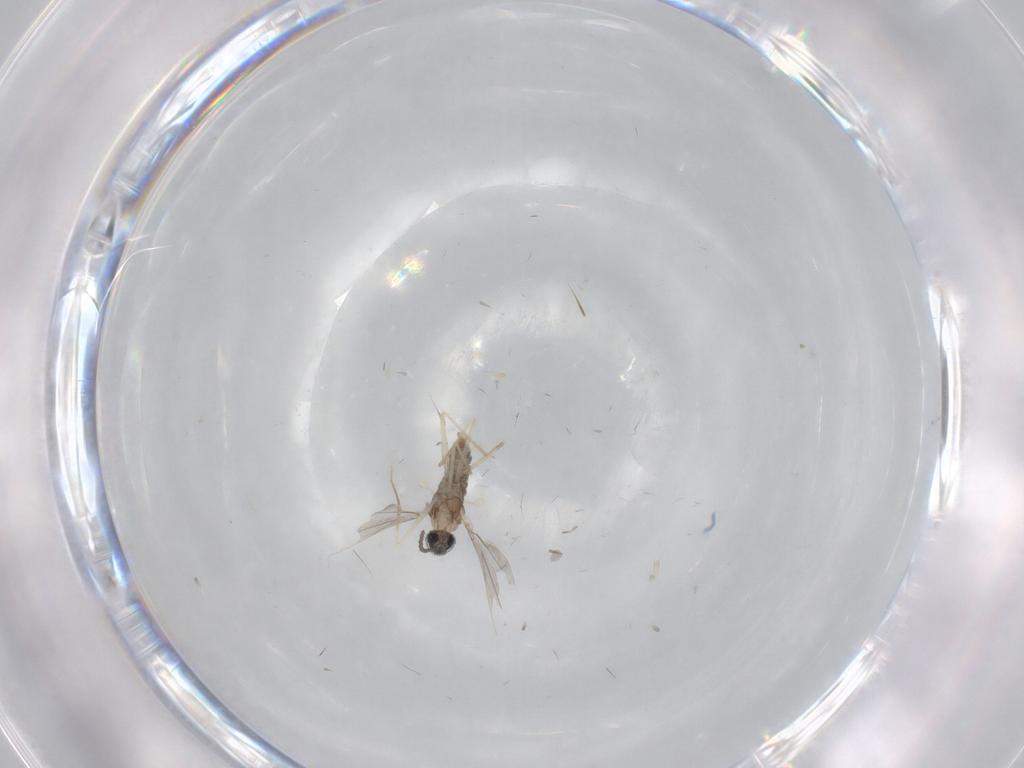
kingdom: Animalia
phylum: Arthropoda
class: Insecta
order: Diptera
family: Cecidomyiidae
